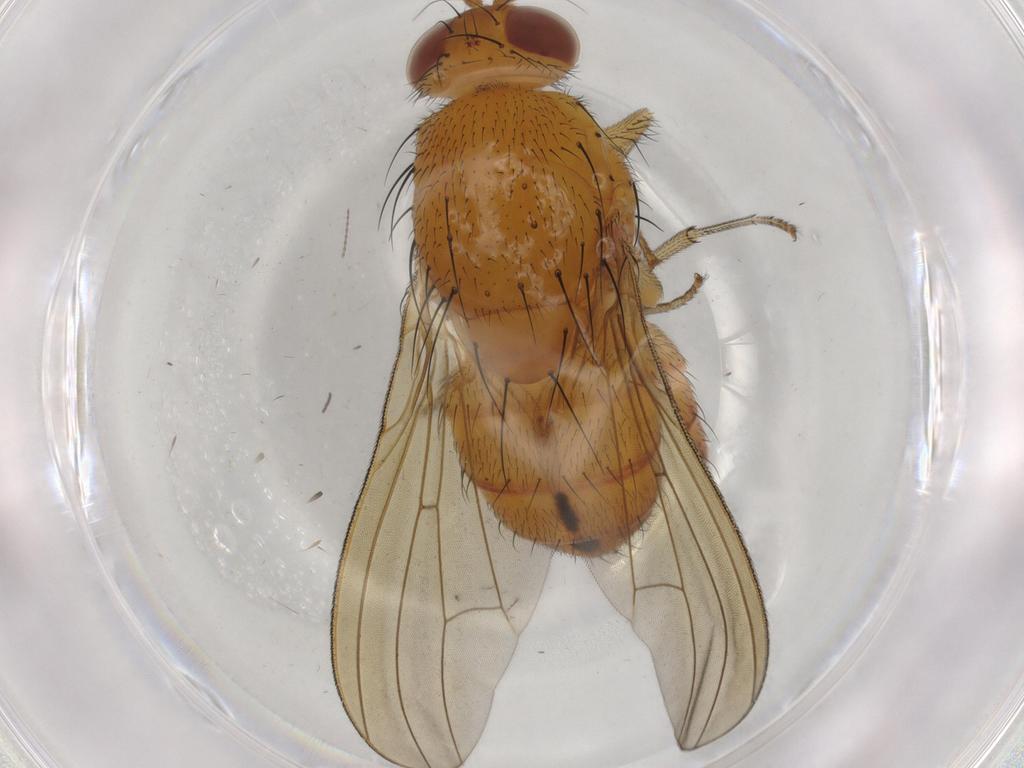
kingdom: Animalia
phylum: Arthropoda
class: Insecta
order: Diptera
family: Cecidomyiidae
